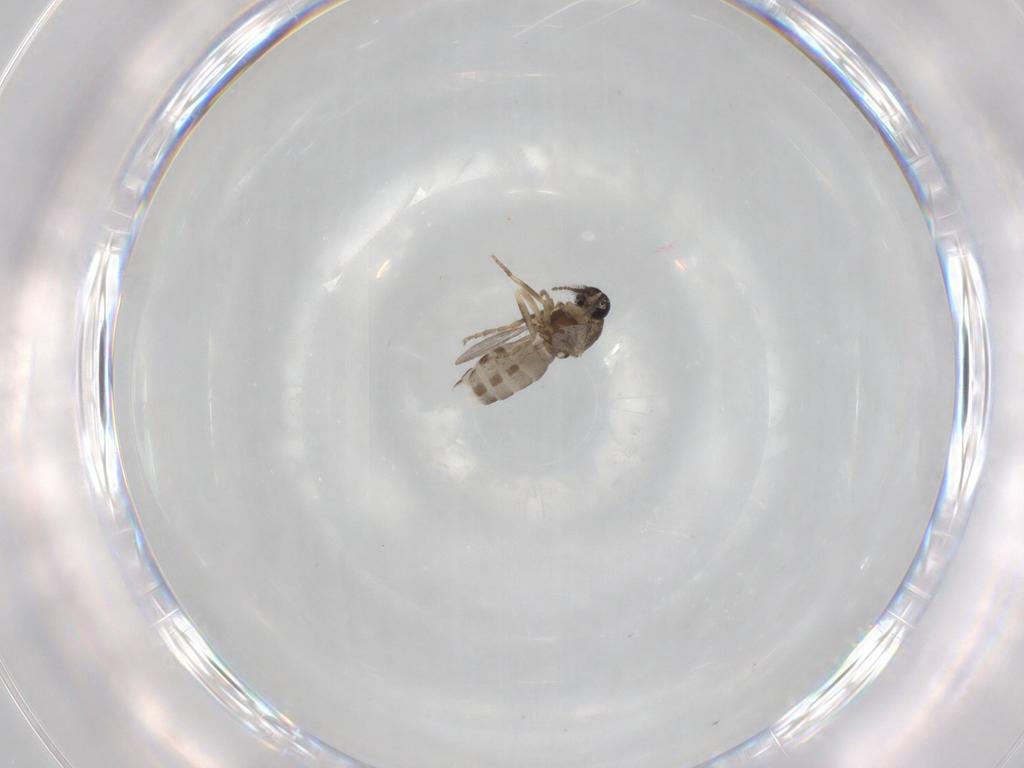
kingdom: Animalia
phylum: Arthropoda
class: Insecta
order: Diptera
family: Ceratopogonidae
